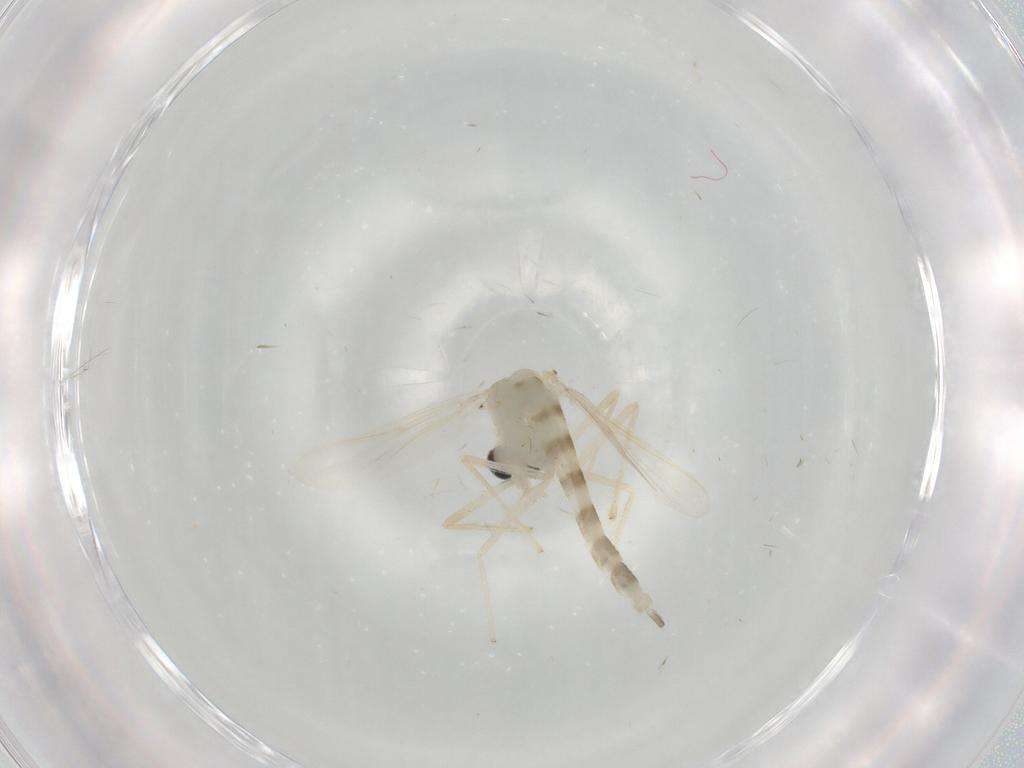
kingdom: Animalia
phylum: Arthropoda
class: Insecta
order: Diptera
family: Chironomidae
